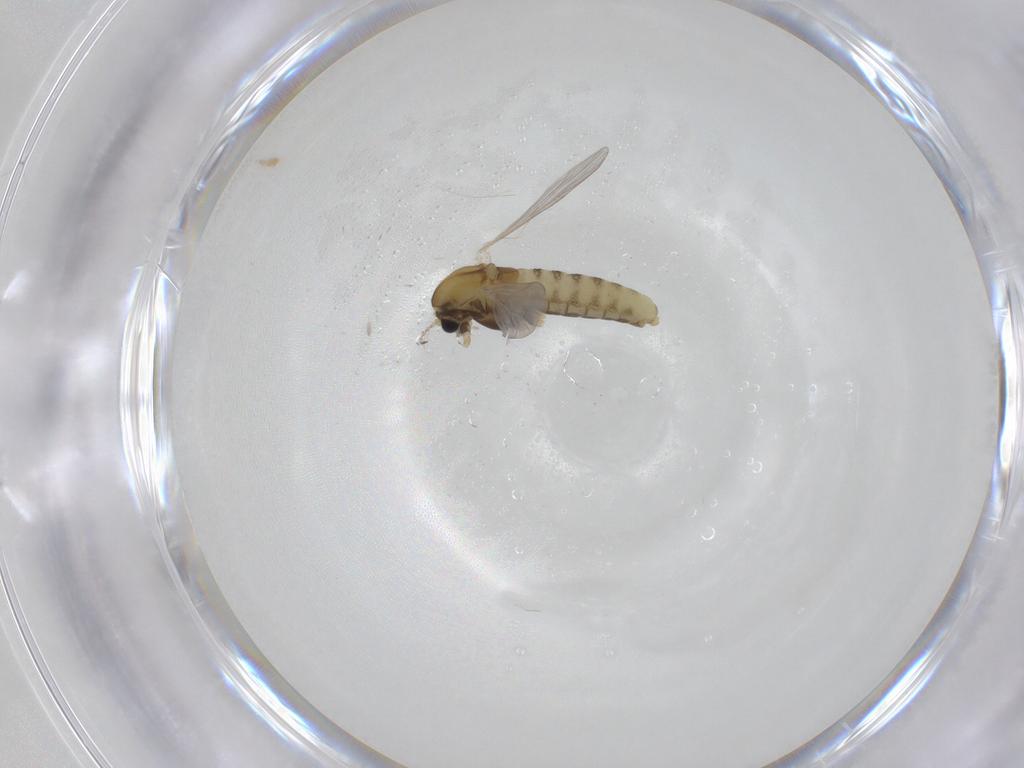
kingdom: Animalia
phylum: Arthropoda
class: Insecta
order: Diptera
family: Chironomidae
